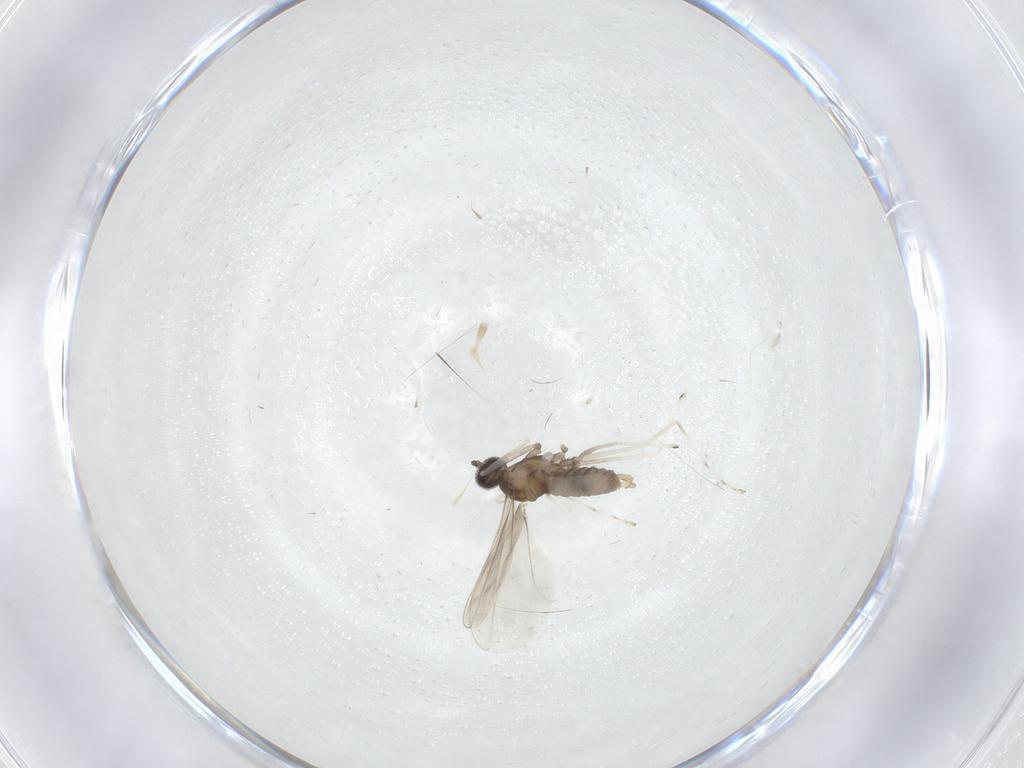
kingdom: Animalia
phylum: Arthropoda
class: Insecta
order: Diptera
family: Cecidomyiidae
